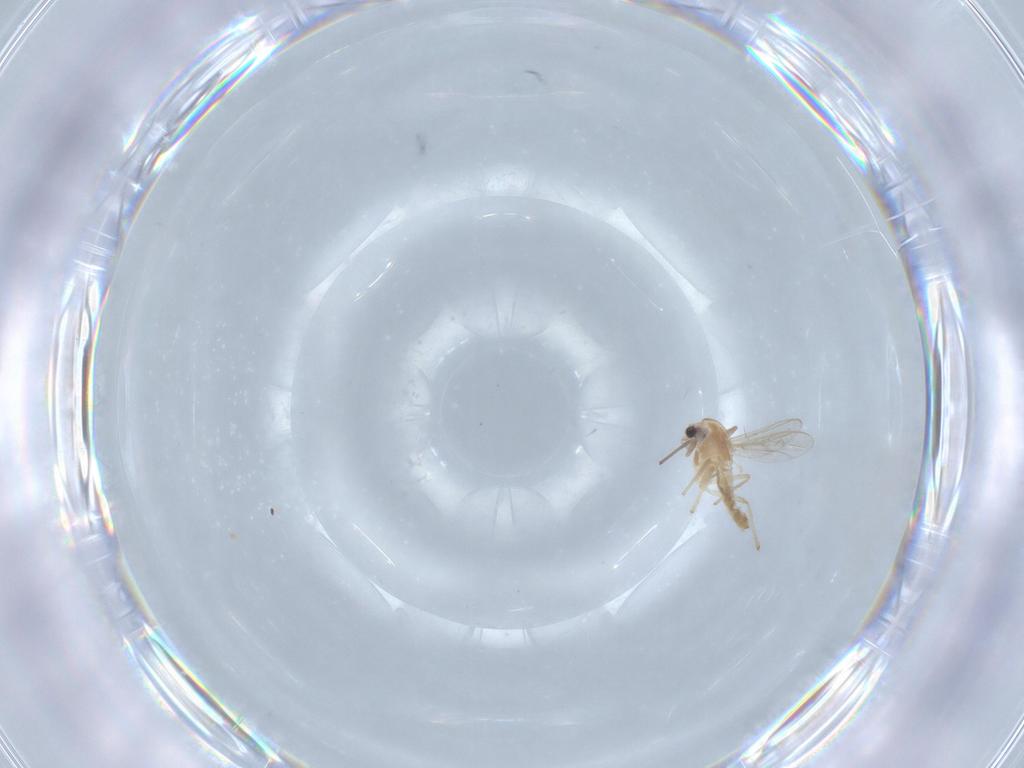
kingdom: Animalia
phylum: Arthropoda
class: Insecta
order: Diptera
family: Chironomidae
